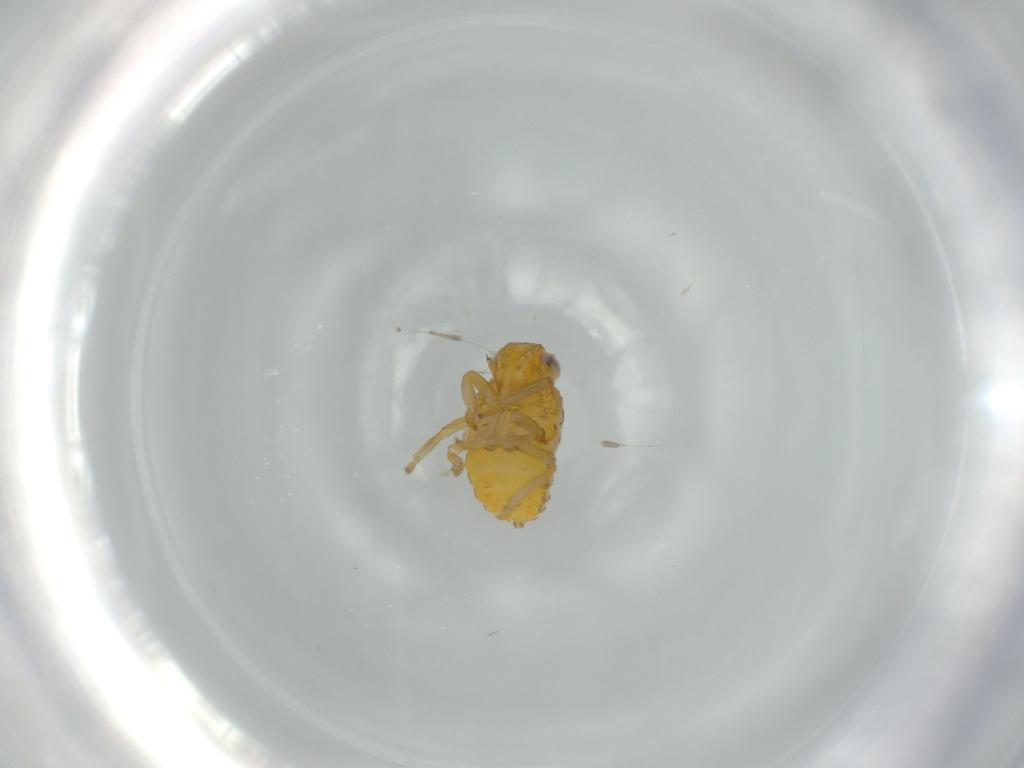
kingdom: Animalia
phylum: Arthropoda
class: Insecta
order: Hemiptera
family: Issidae
